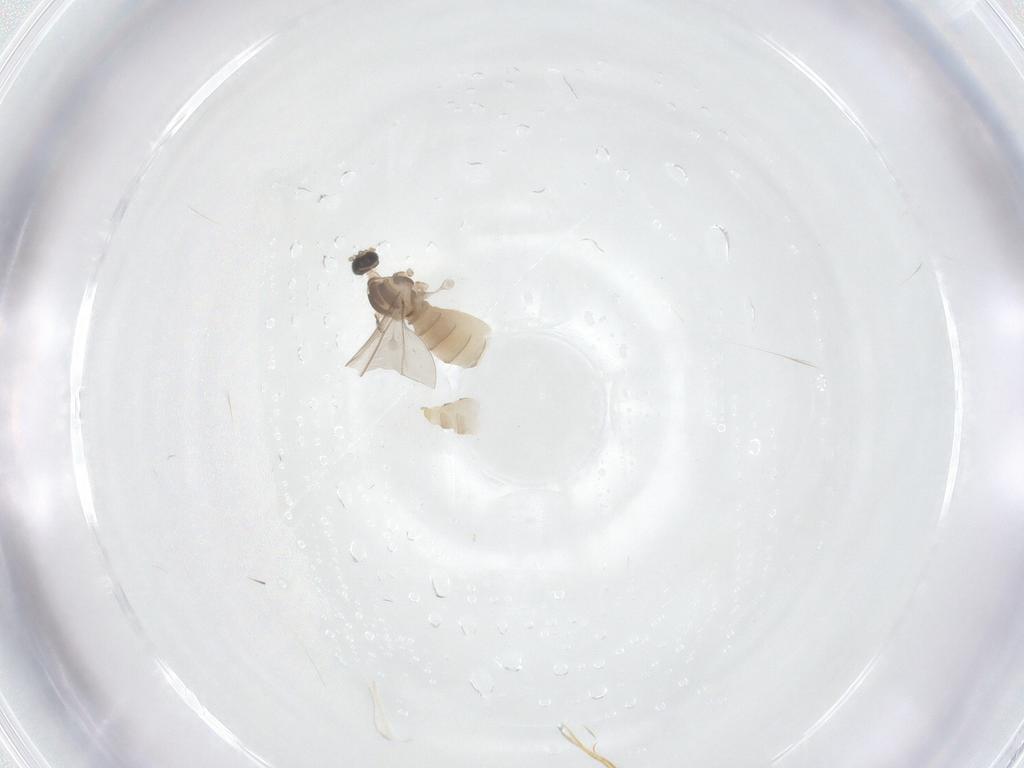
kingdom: Animalia
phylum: Arthropoda
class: Insecta
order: Diptera
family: Cecidomyiidae
